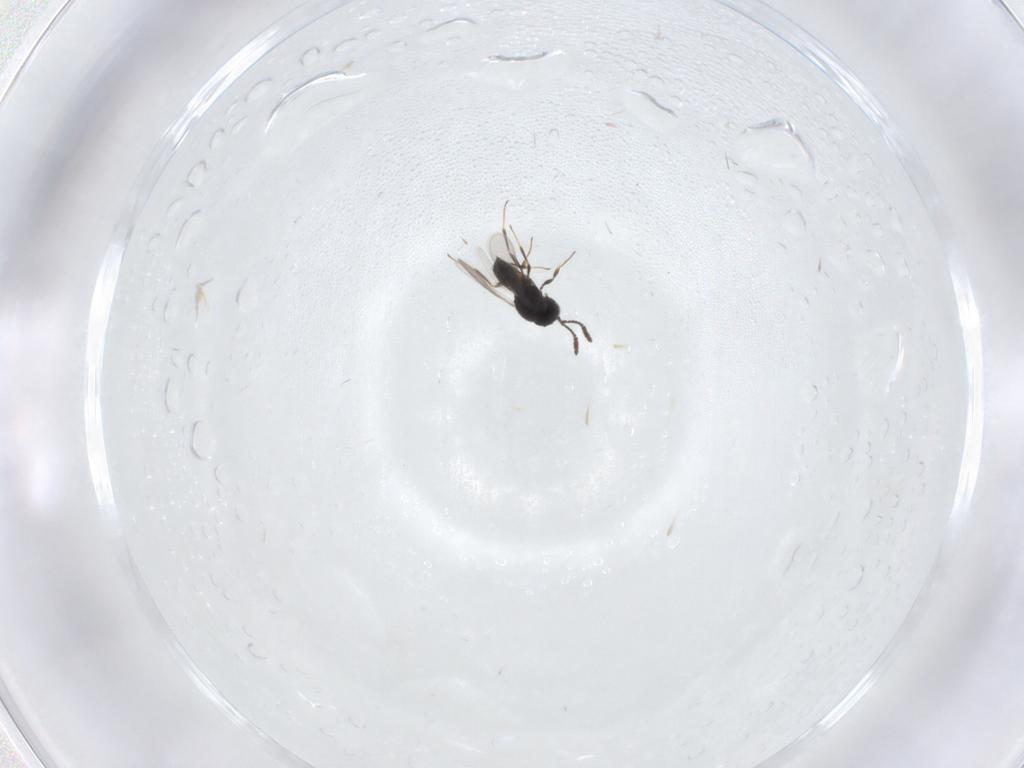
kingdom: Animalia
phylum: Arthropoda
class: Insecta
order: Hymenoptera
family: Scelionidae
